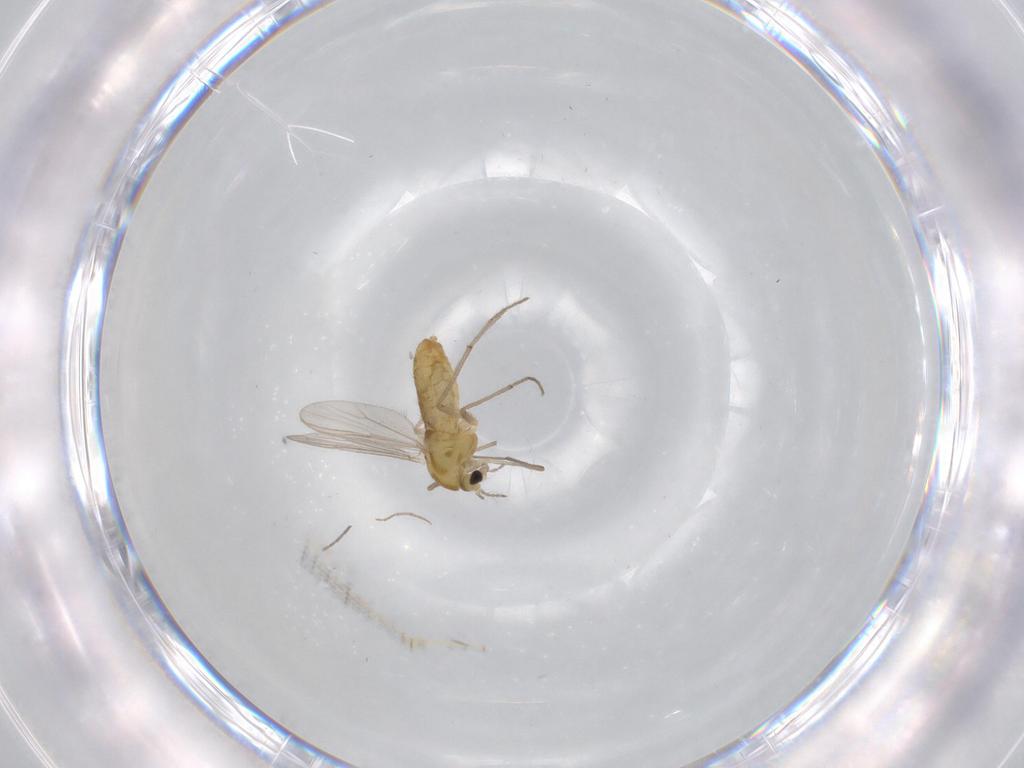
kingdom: Animalia
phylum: Arthropoda
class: Insecta
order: Diptera
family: Chironomidae
